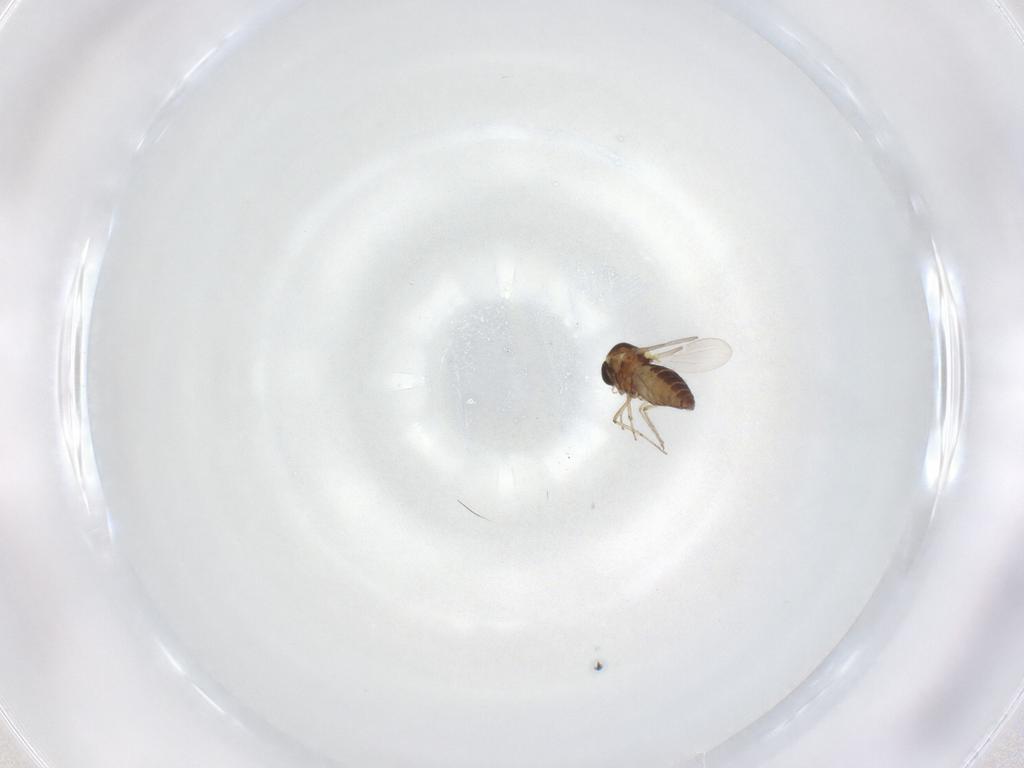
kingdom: Animalia
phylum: Arthropoda
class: Insecta
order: Diptera
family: Ceratopogonidae
